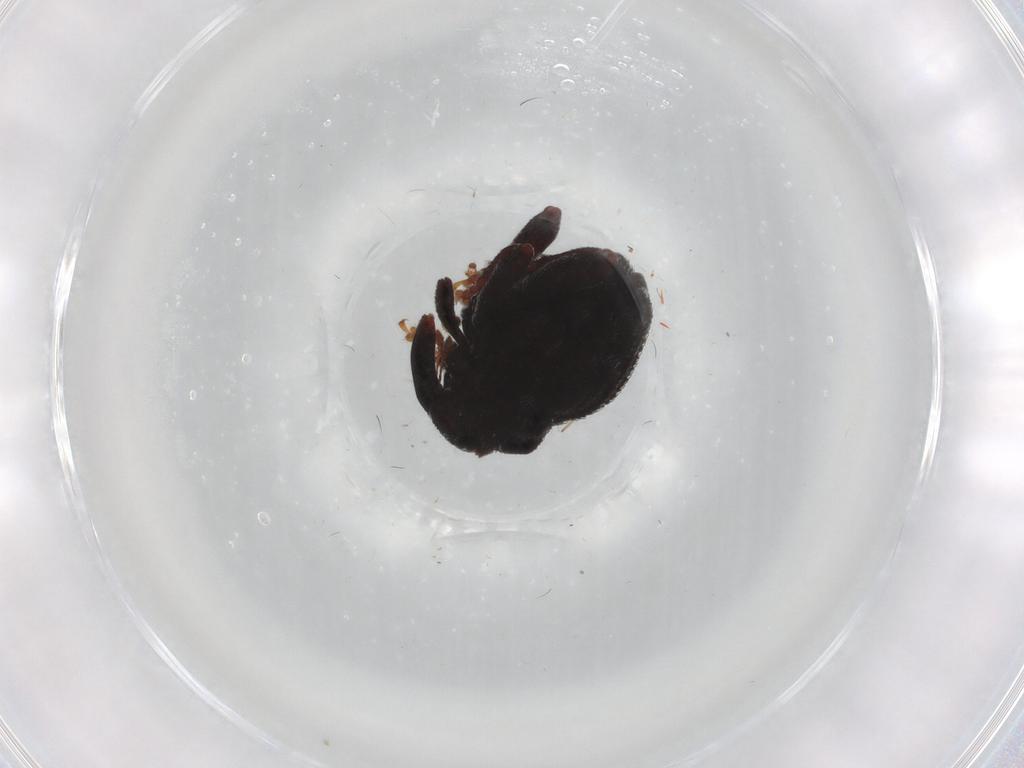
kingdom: Animalia
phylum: Arthropoda
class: Insecta
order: Coleoptera
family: Curculionidae
